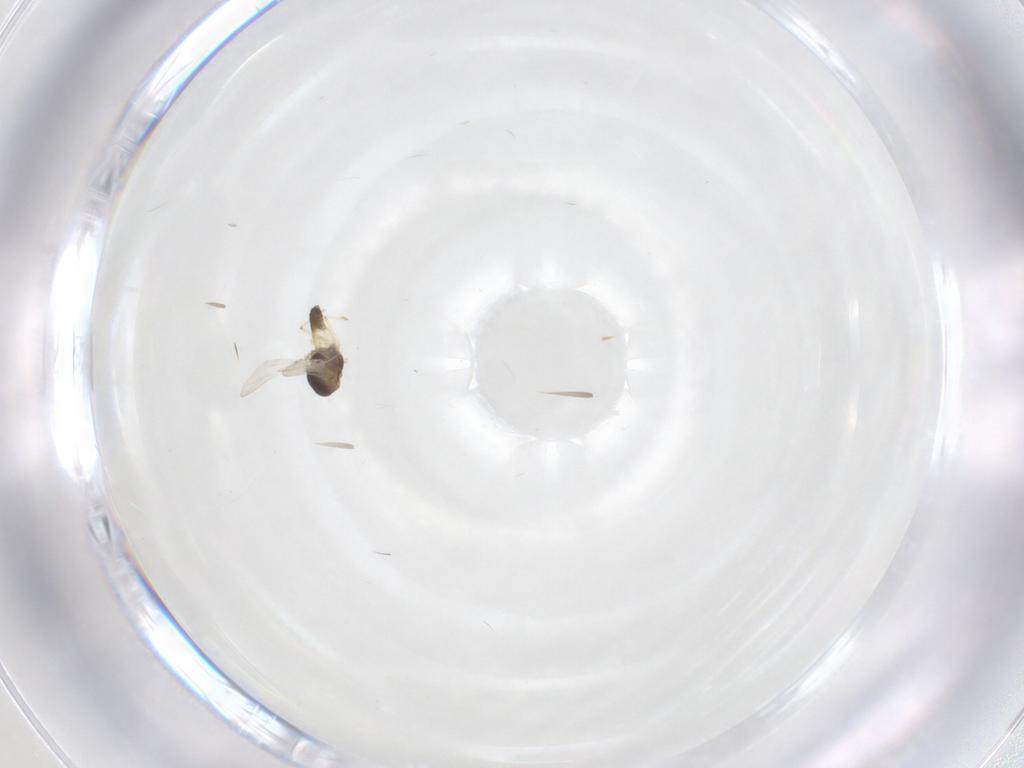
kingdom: Animalia
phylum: Arthropoda
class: Insecta
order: Diptera
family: Chironomidae
